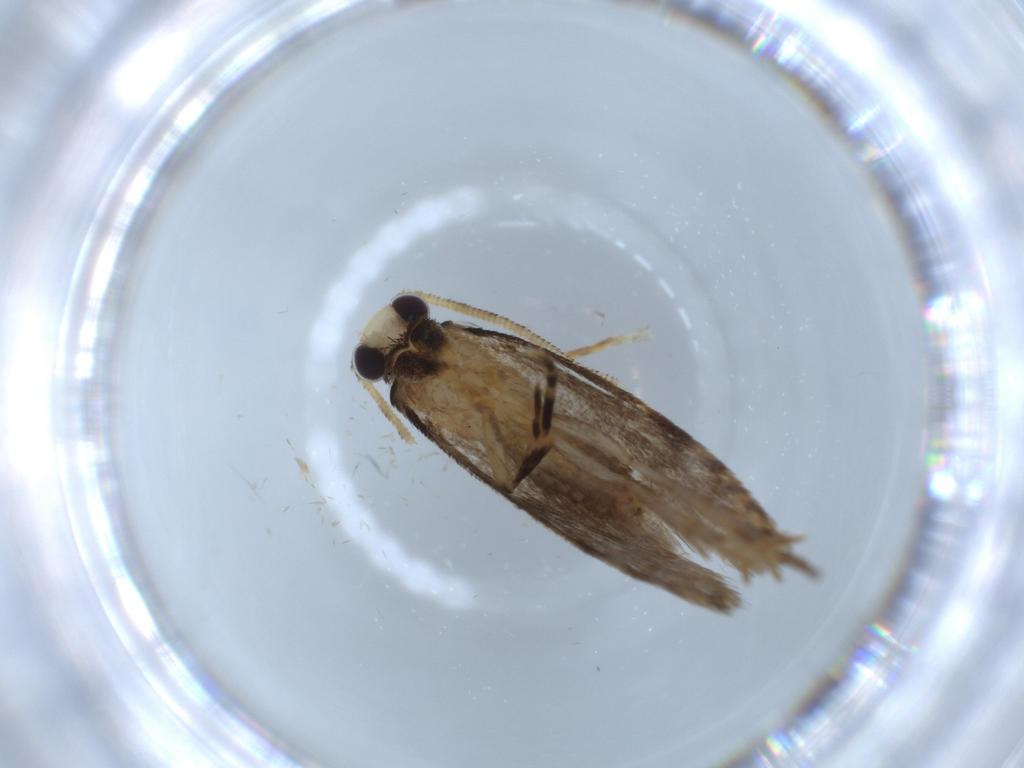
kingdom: Animalia
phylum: Arthropoda
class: Insecta
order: Lepidoptera
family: Tineidae
